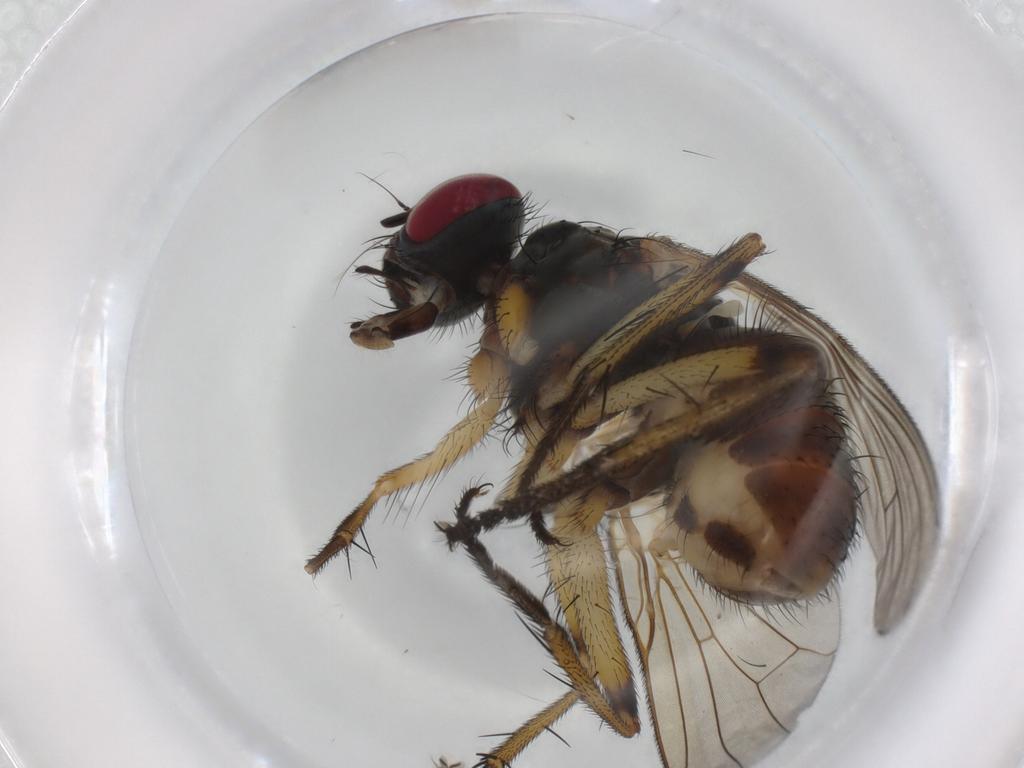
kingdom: Animalia
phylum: Arthropoda
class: Insecta
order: Diptera
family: Dolichopodidae
